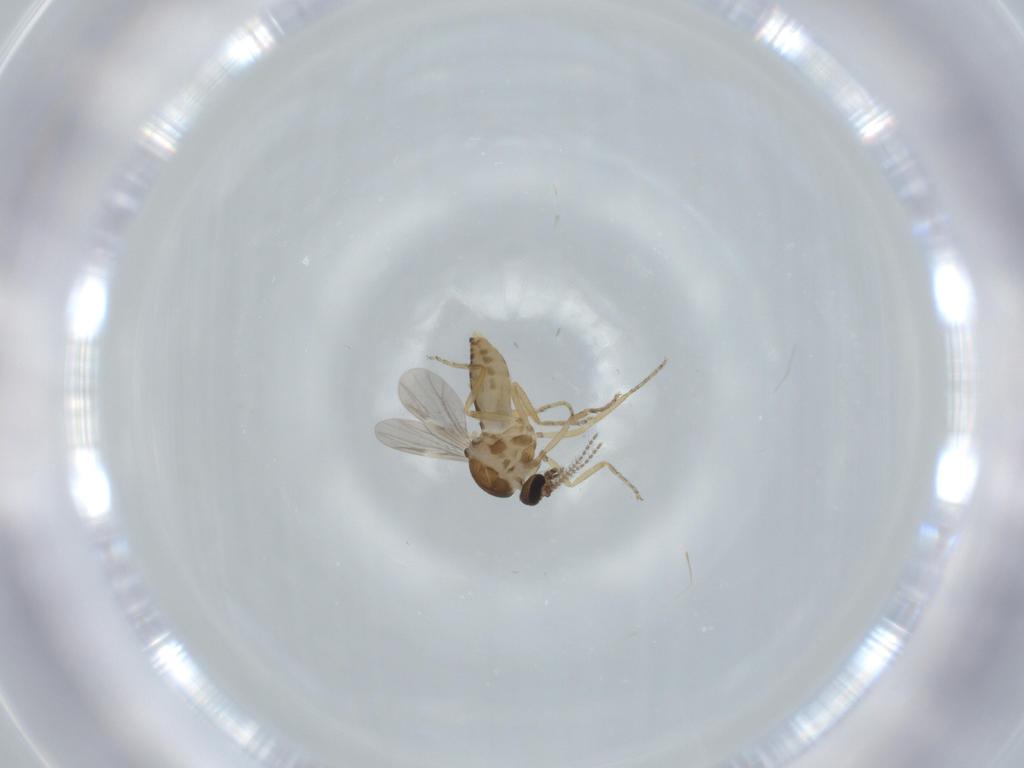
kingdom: Animalia
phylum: Arthropoda
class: Insecta
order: Diptera
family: Ceratopogonidae
